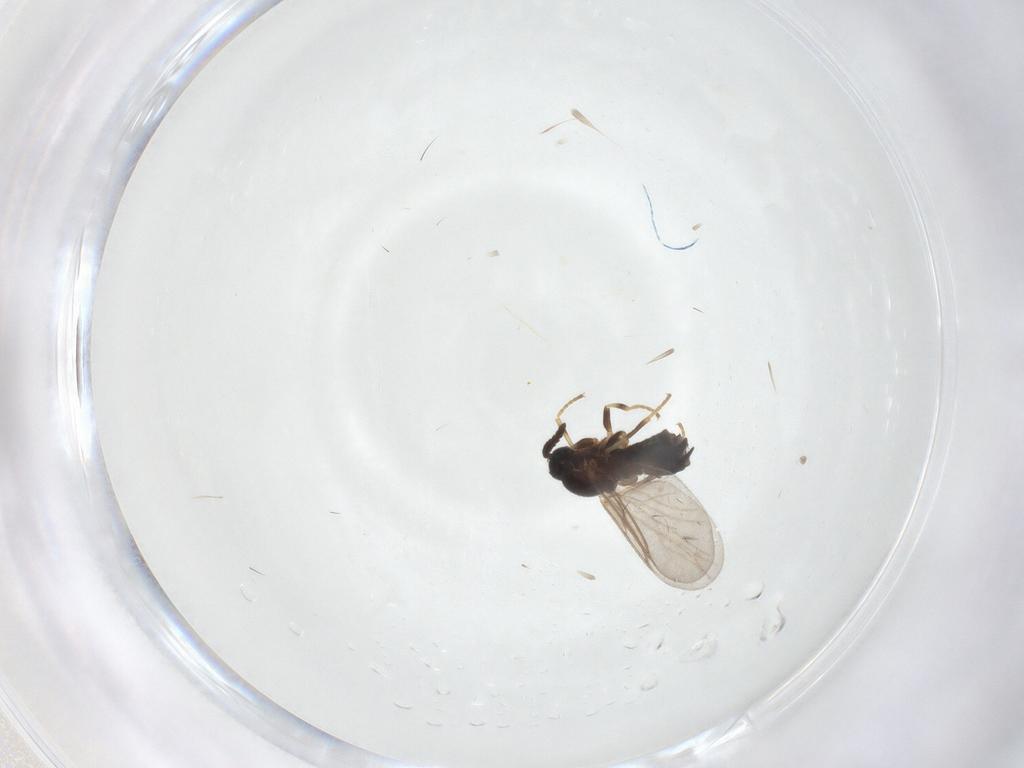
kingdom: Animalia
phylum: Arthropoda
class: Insecta
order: Diptera
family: Scatopsidae
